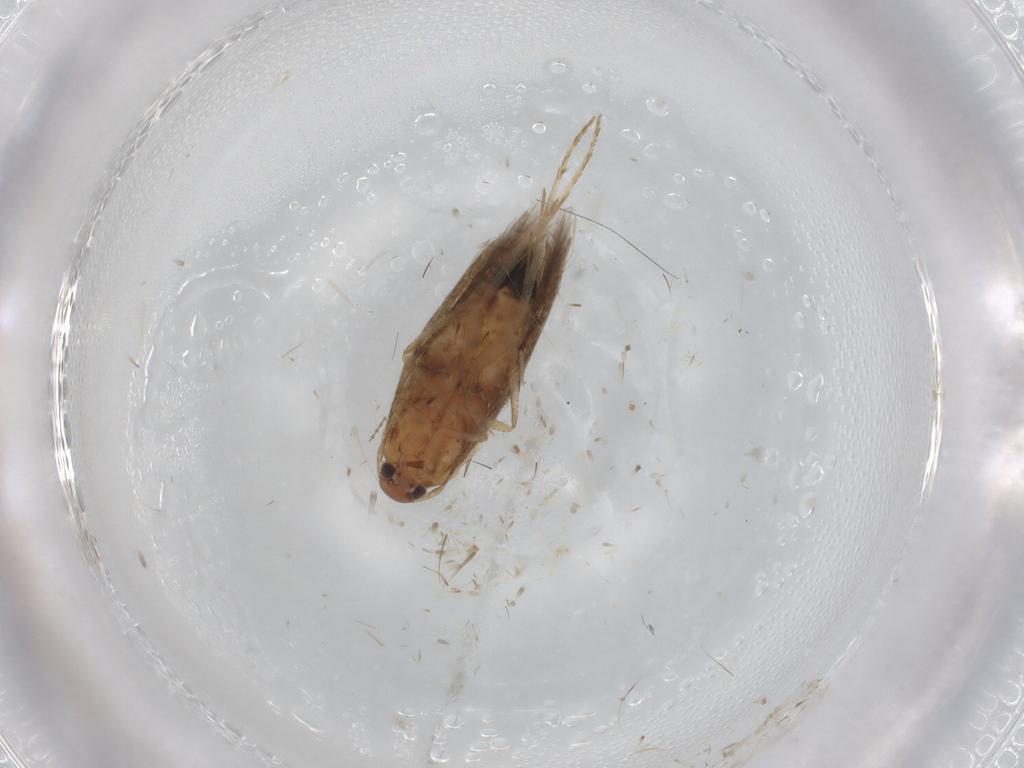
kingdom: Animalia
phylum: Arthropoda
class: Insecta
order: Lepidoptera
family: Cosmopterigidae
